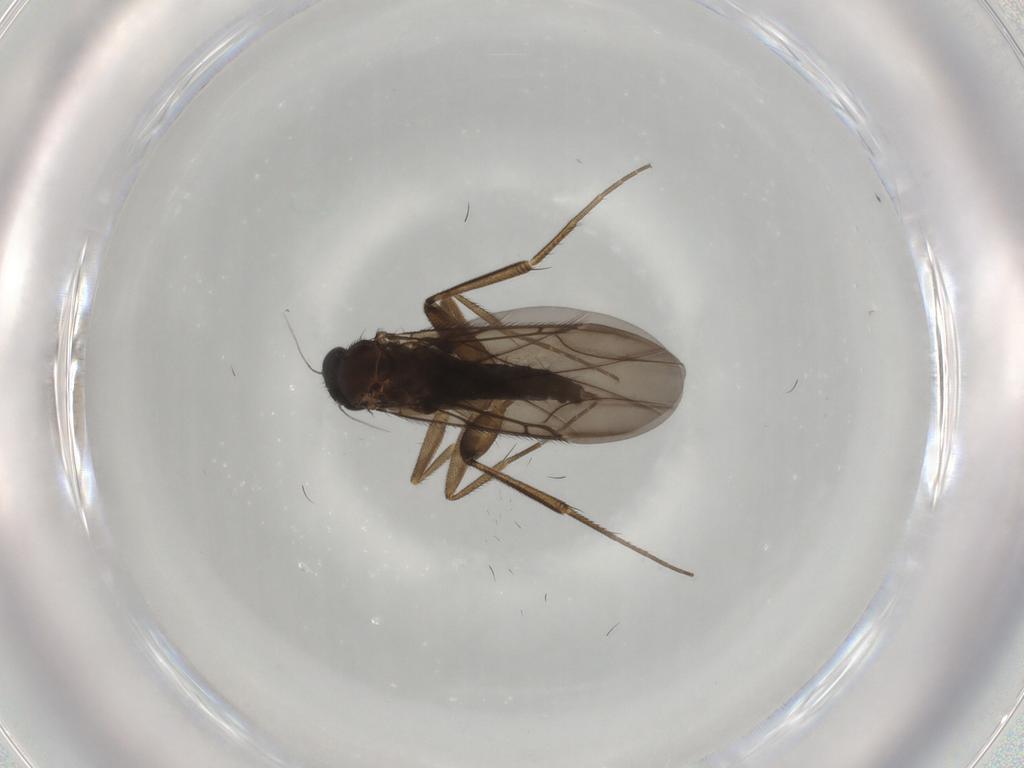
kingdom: Animalia
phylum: Arthropoda
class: Insecta
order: Diptera
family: Phoridae
